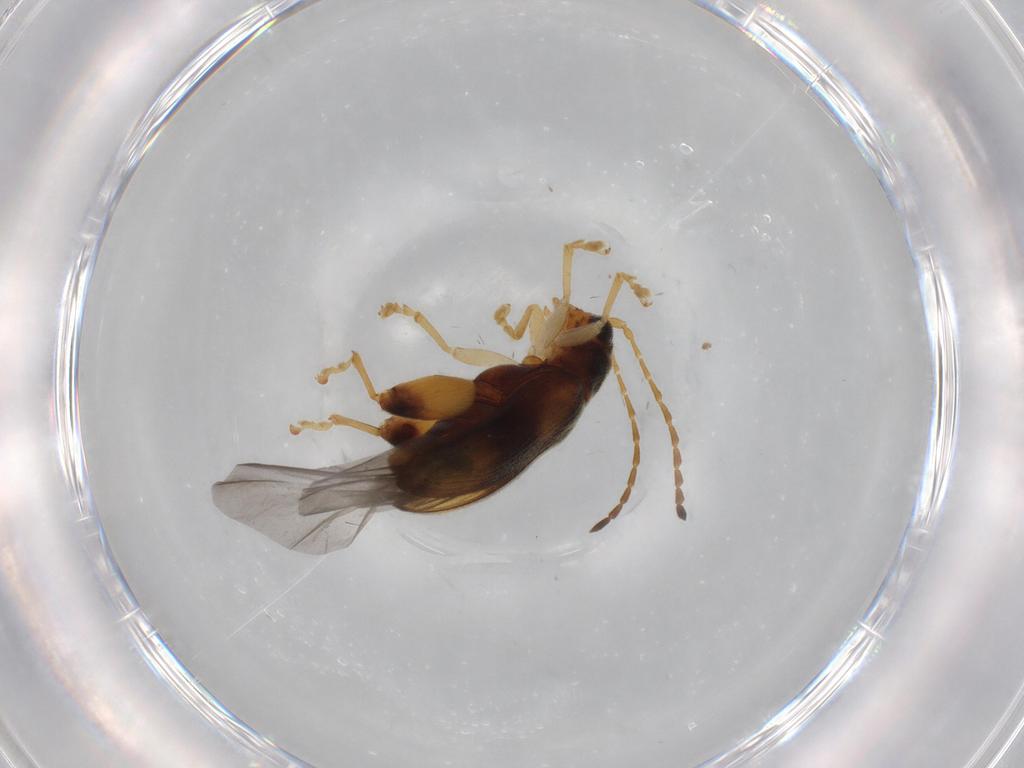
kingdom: Animalia
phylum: Arthropoda
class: Insecta
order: Coleoptera
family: Chrysomelidae
